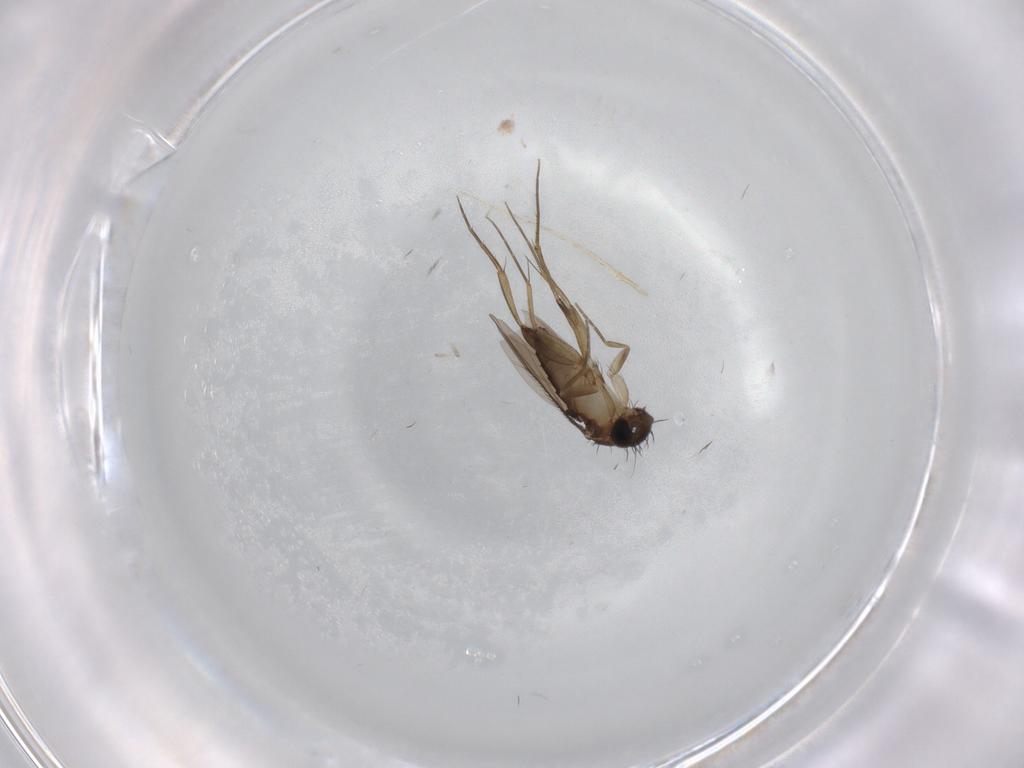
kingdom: Animalia
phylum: Arthropoda
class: Insecta
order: Diptera
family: Phoridae
